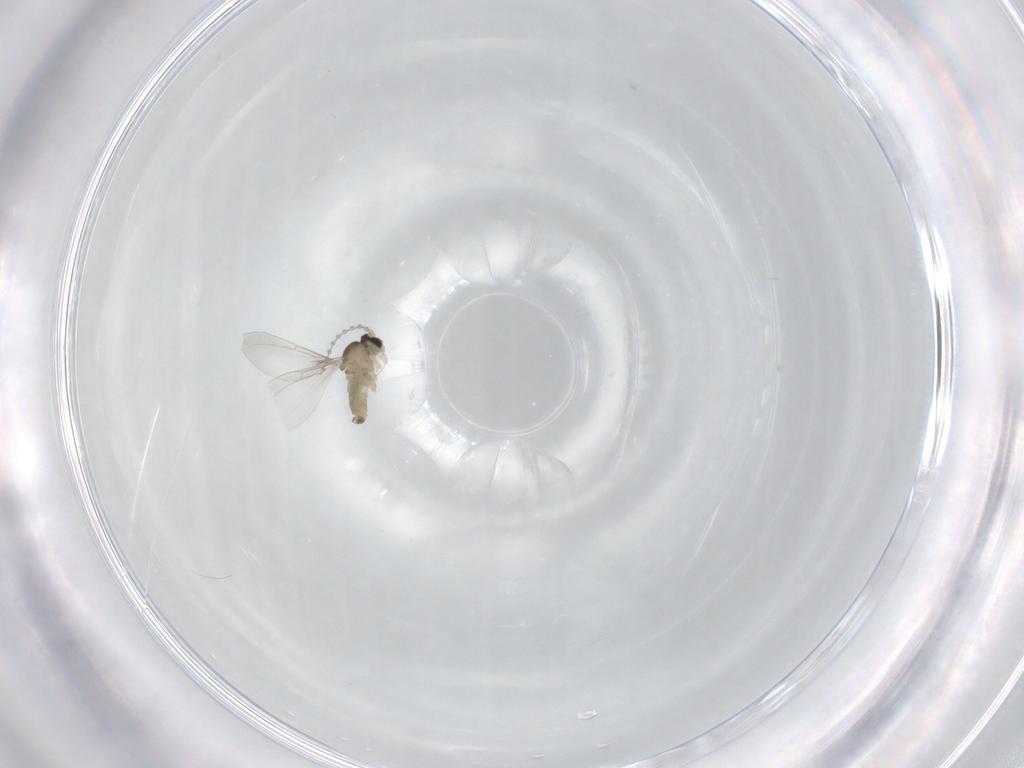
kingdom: Animalia
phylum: Arthropoda
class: Insecta
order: Diptera
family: Cecidomyiidae
